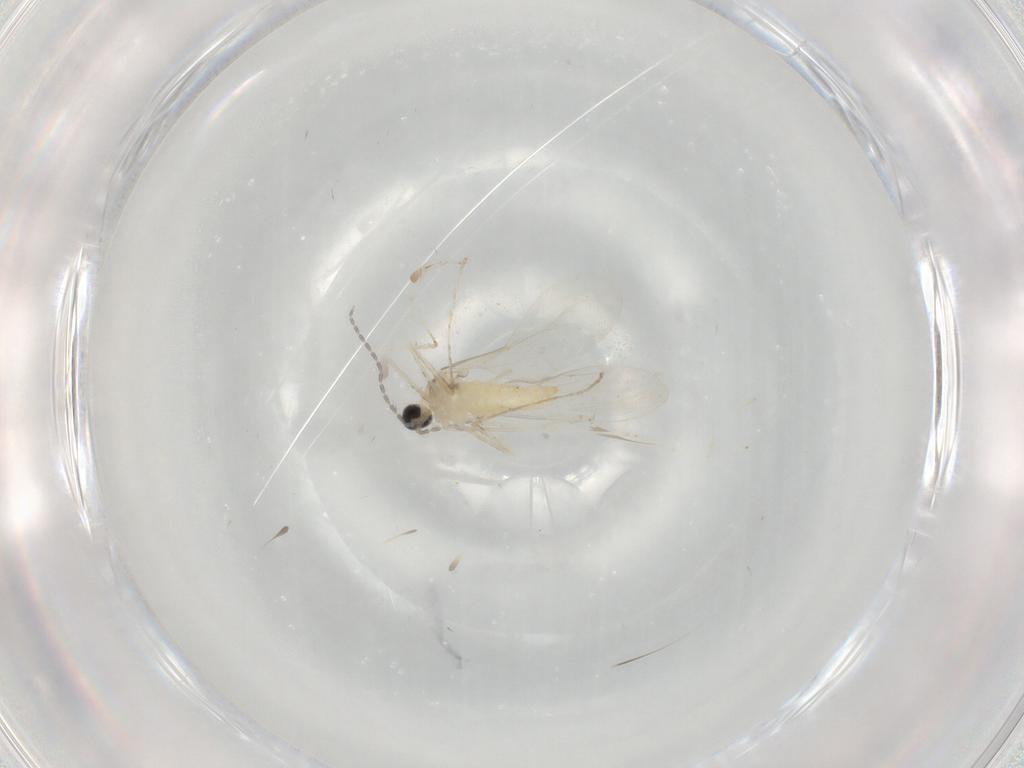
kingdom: Animalia
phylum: Arthropoda
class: Insecta
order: Diptera
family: Cecidomyiidae
